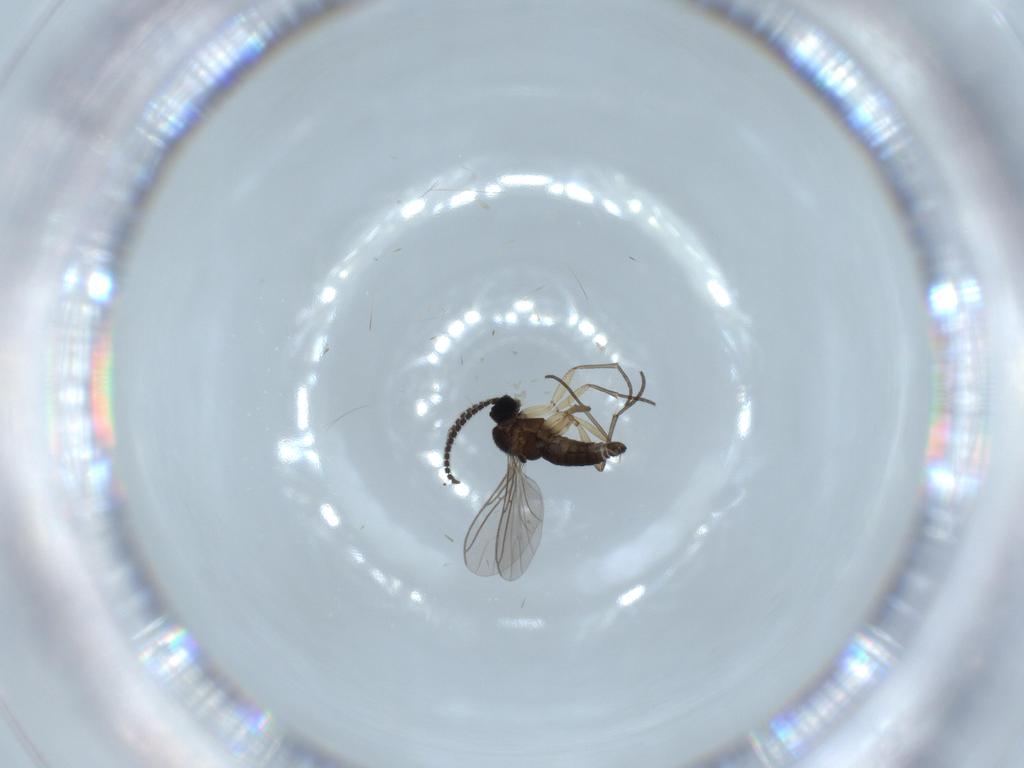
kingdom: Animalia
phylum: Arthropoda
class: Insecta
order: Diptera
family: Sciaridae
